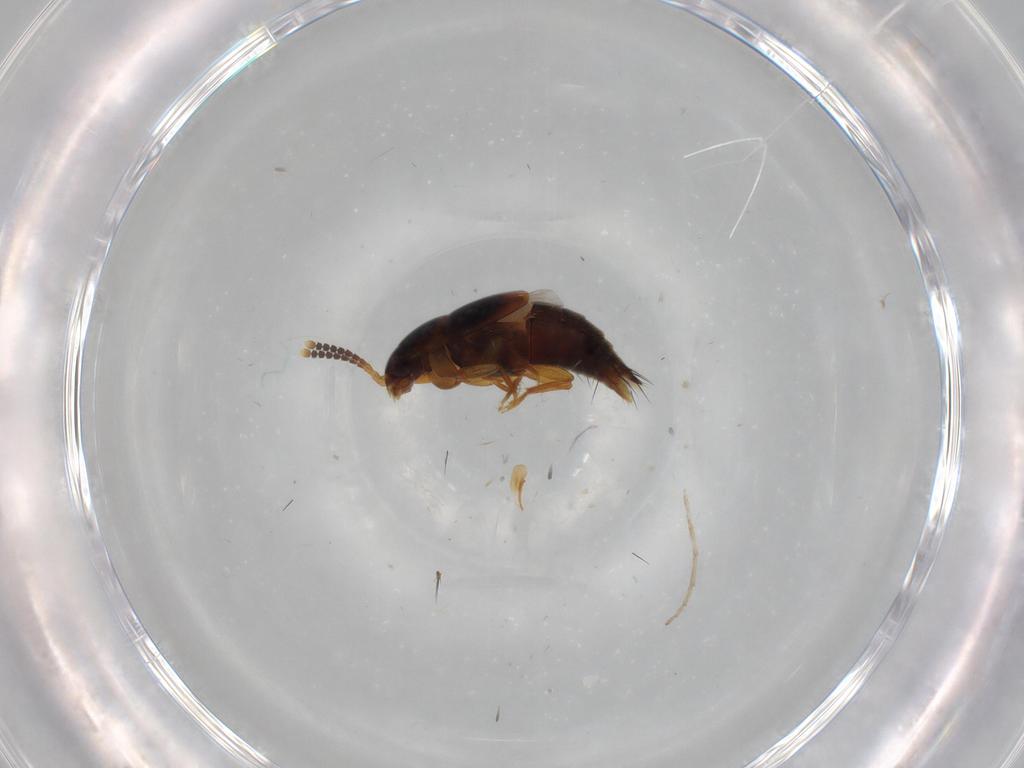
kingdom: Animalia
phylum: Arthropoda
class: Insecta
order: Coleoptera
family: Staphylinidae
